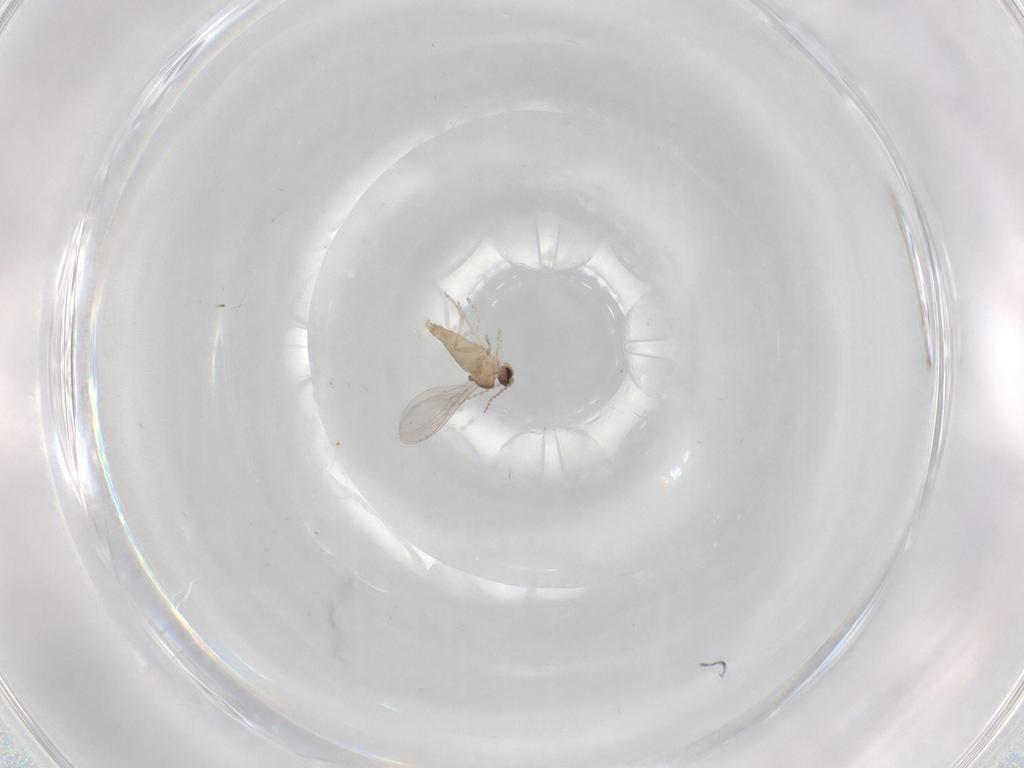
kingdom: Animalia
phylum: Arthropoda
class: Insecta
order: Diptera
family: Cecidomyiidae
